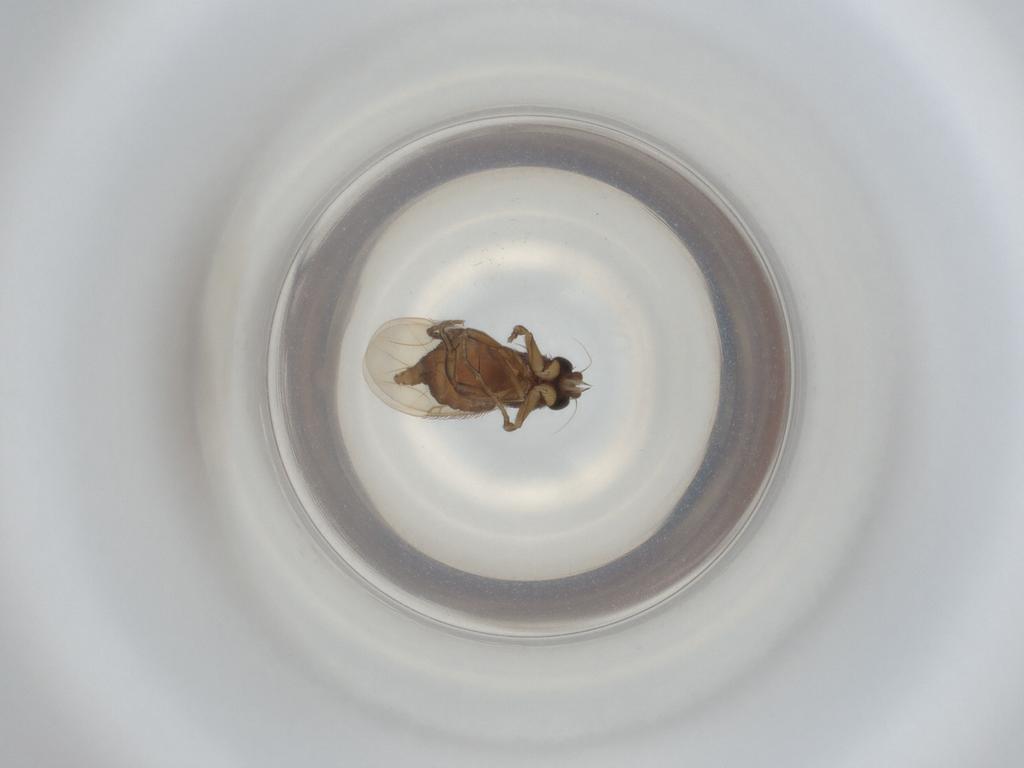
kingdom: Animalia
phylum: Arthropoda
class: Insecta
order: Diptera
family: Phoridae
